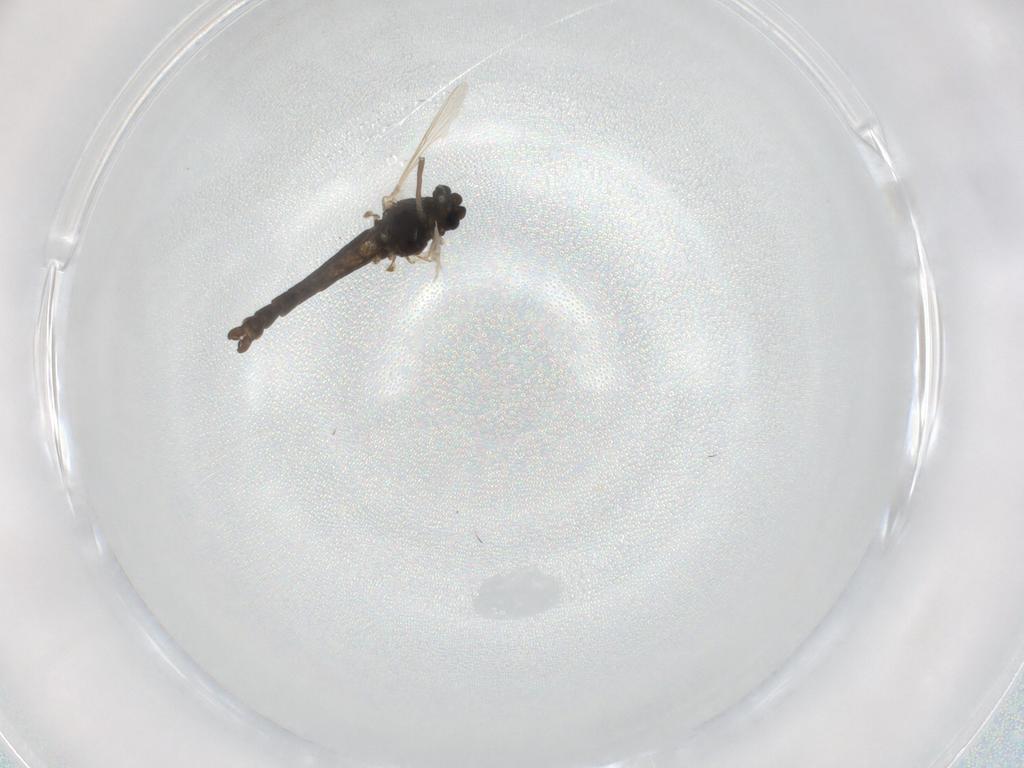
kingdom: Animalia
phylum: Arthropoda
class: Insecta
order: Diptera
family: Chironomidae
